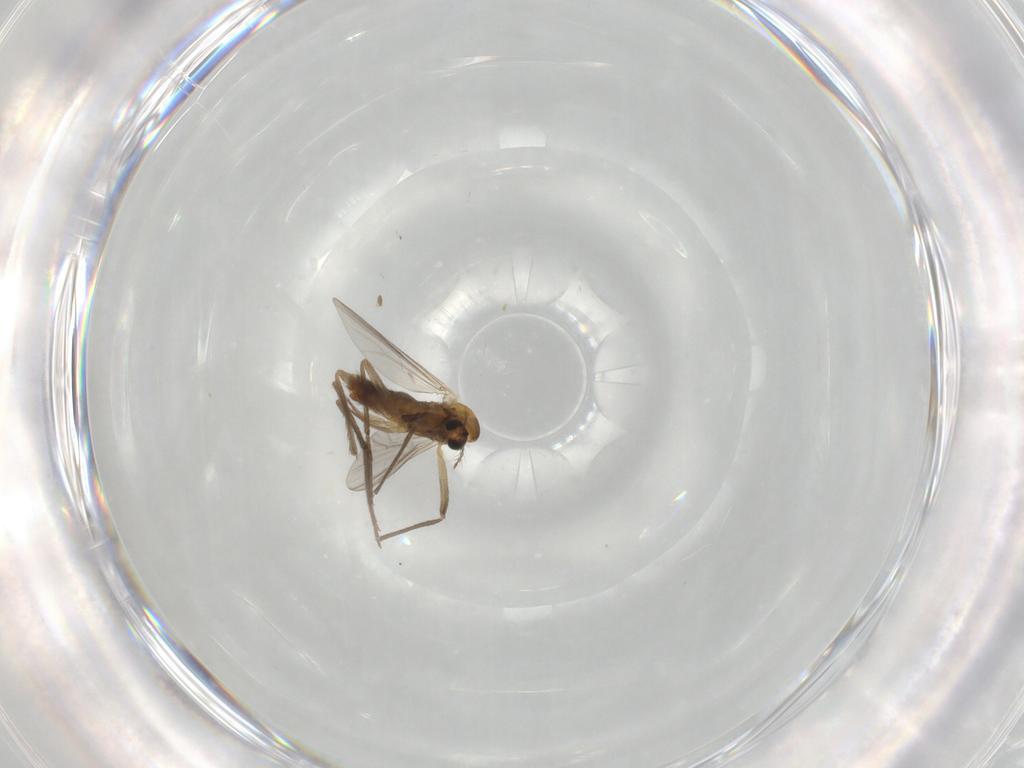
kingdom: Animalia
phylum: Arthropoda
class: Insecta
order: Diptera
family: Chironomidae
